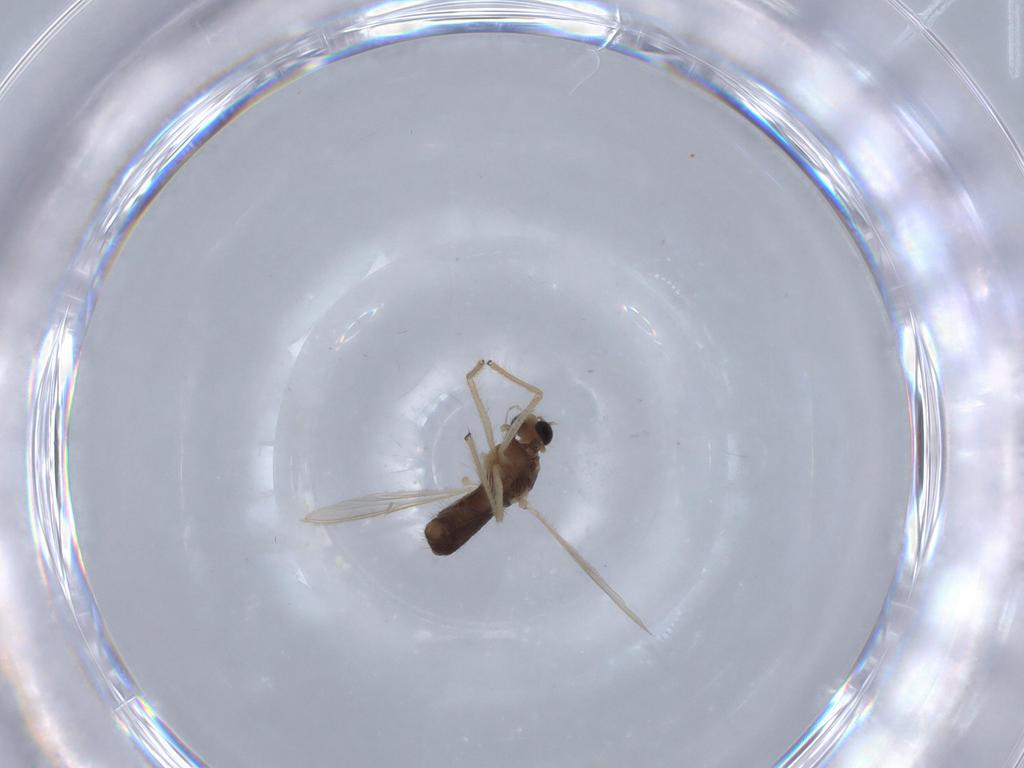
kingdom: Animalia
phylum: Arthropoda
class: Insecta
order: Diptera
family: Chironomidae
